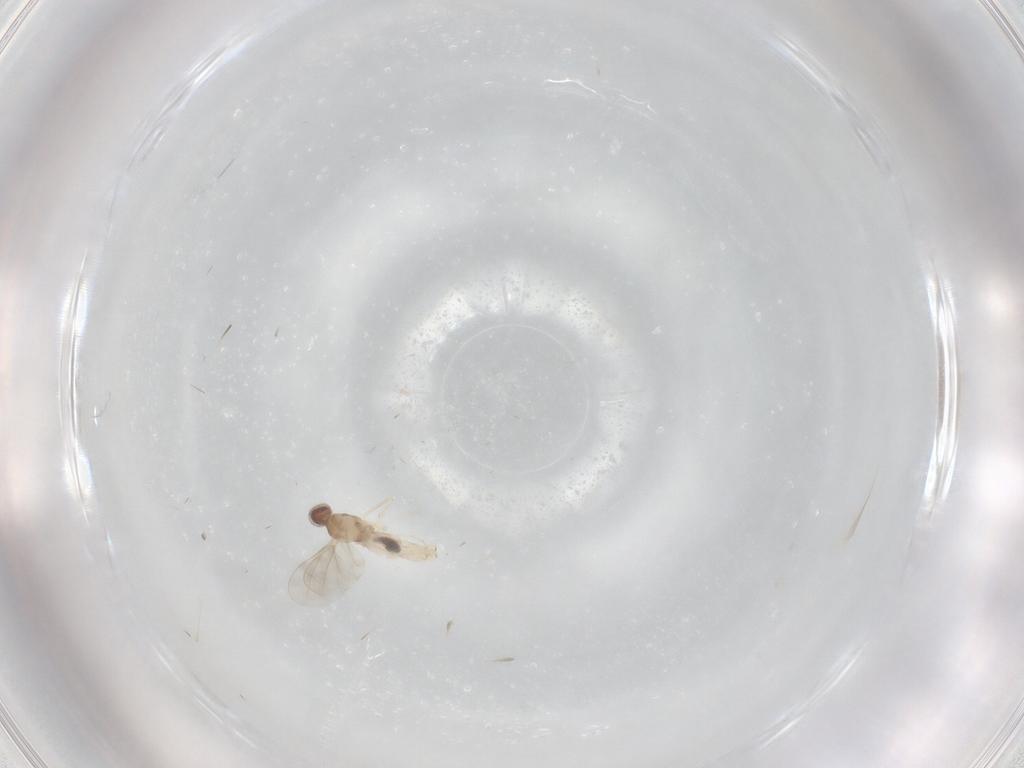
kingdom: Animalia
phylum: Arthropoda
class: Insecta
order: Diptera
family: Cecidomyiidae
